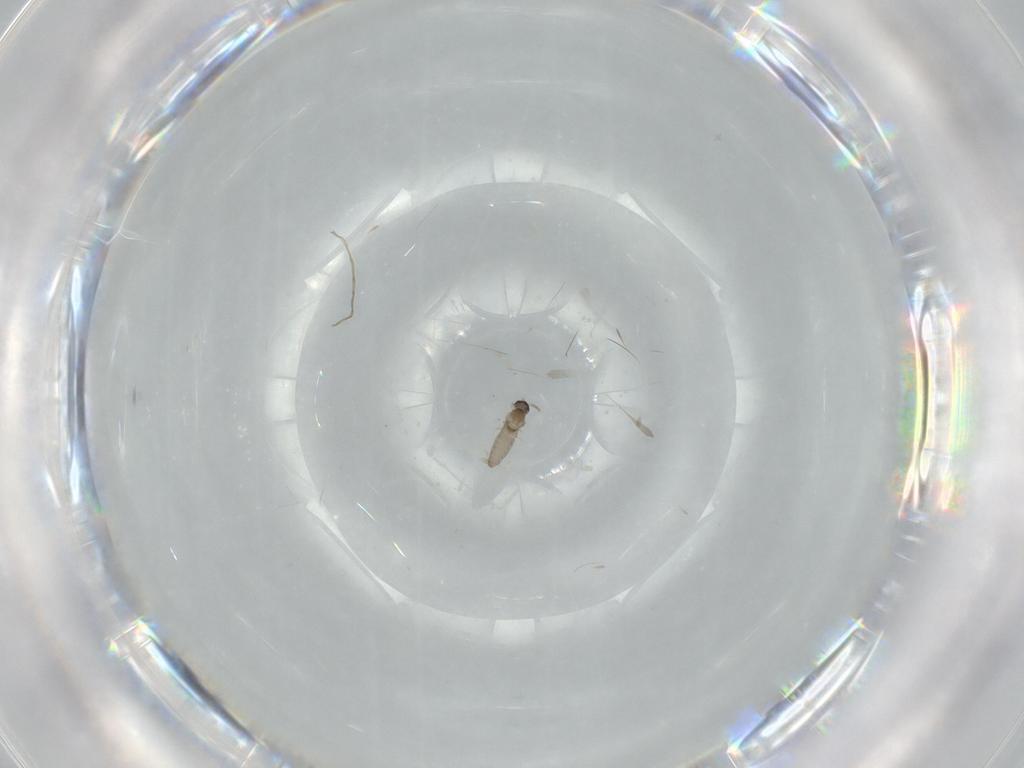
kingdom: Animalia
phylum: Arthropoda
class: Insecta
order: Diptera
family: Cecidomyiidae
